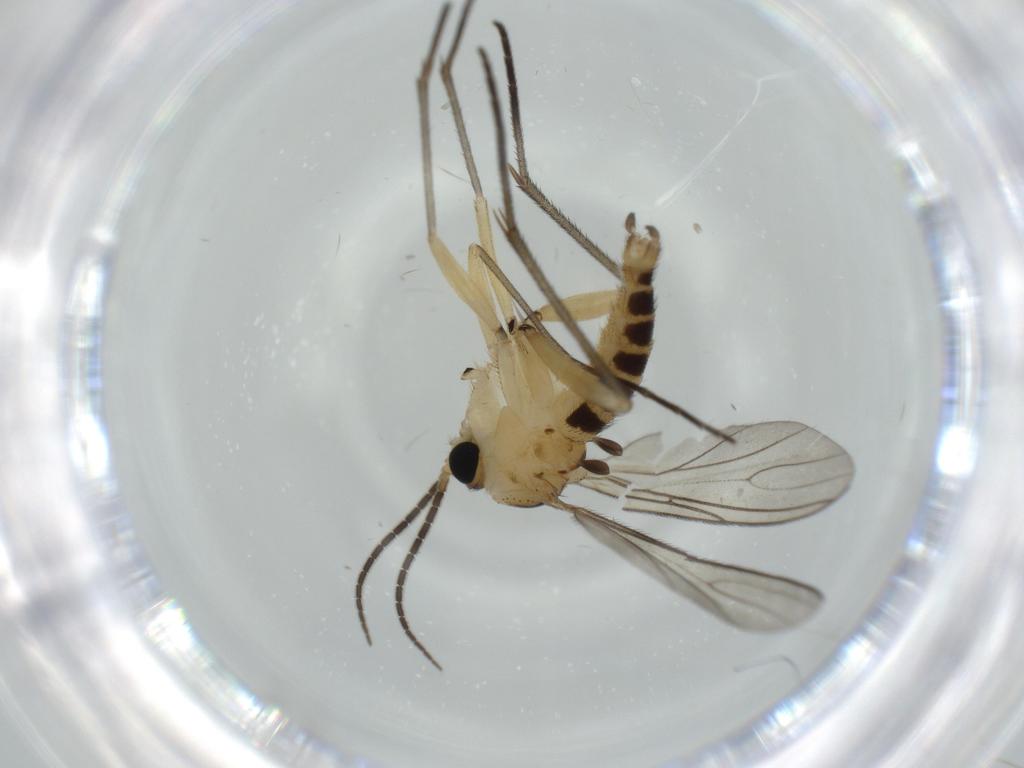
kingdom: Animalia
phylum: Arthropoda
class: Insecta
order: Diptera
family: Sciaridae
